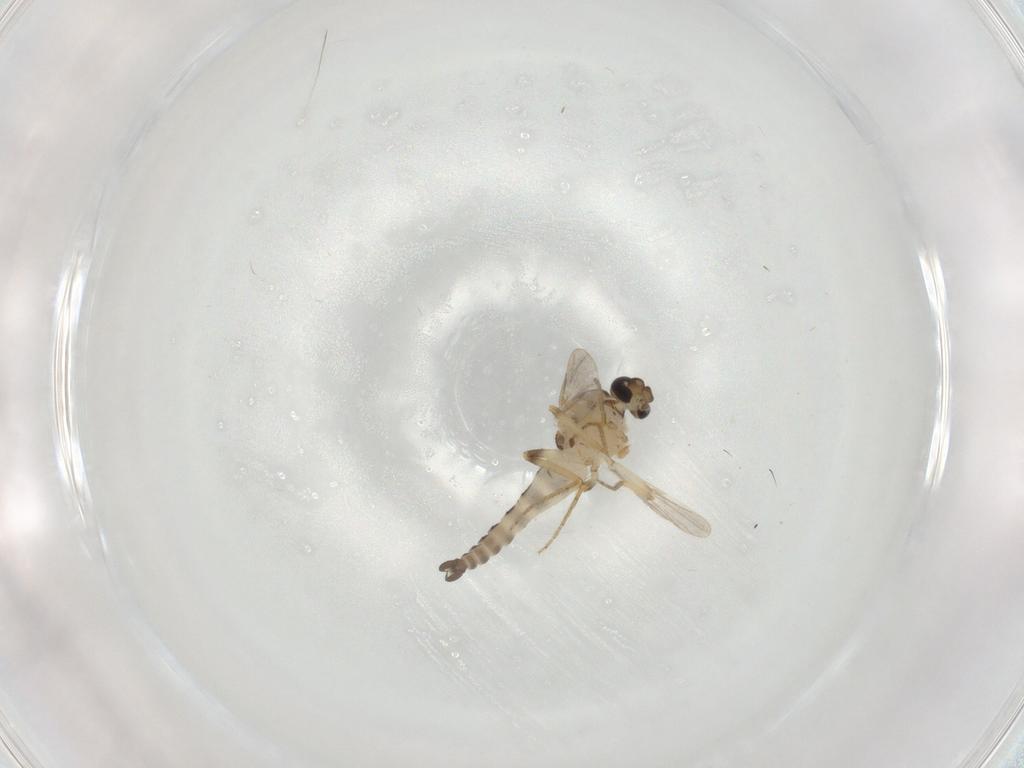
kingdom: Animalia
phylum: Arthropoda
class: Insecta
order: Diptera
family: Ceratopogonidae
